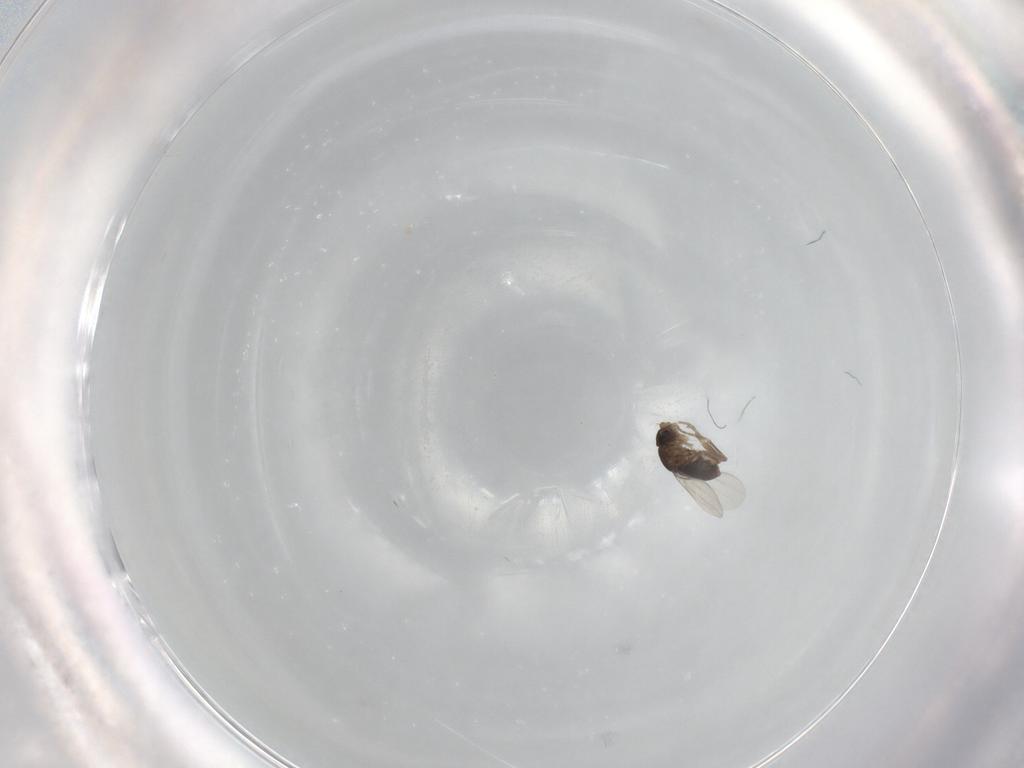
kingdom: Animalia
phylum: Arthropoda
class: Insecta
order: Diptera
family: Phoridae
